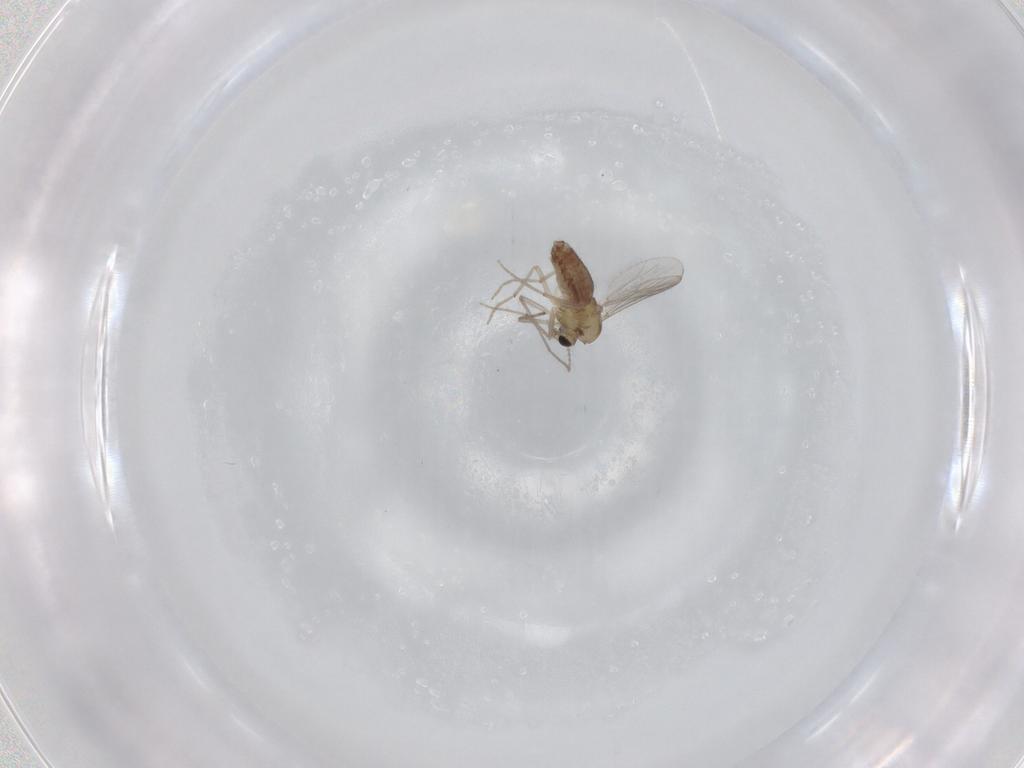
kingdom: Animalia
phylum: Arthropoda
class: Insecta
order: Diptera
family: Chironomidae
